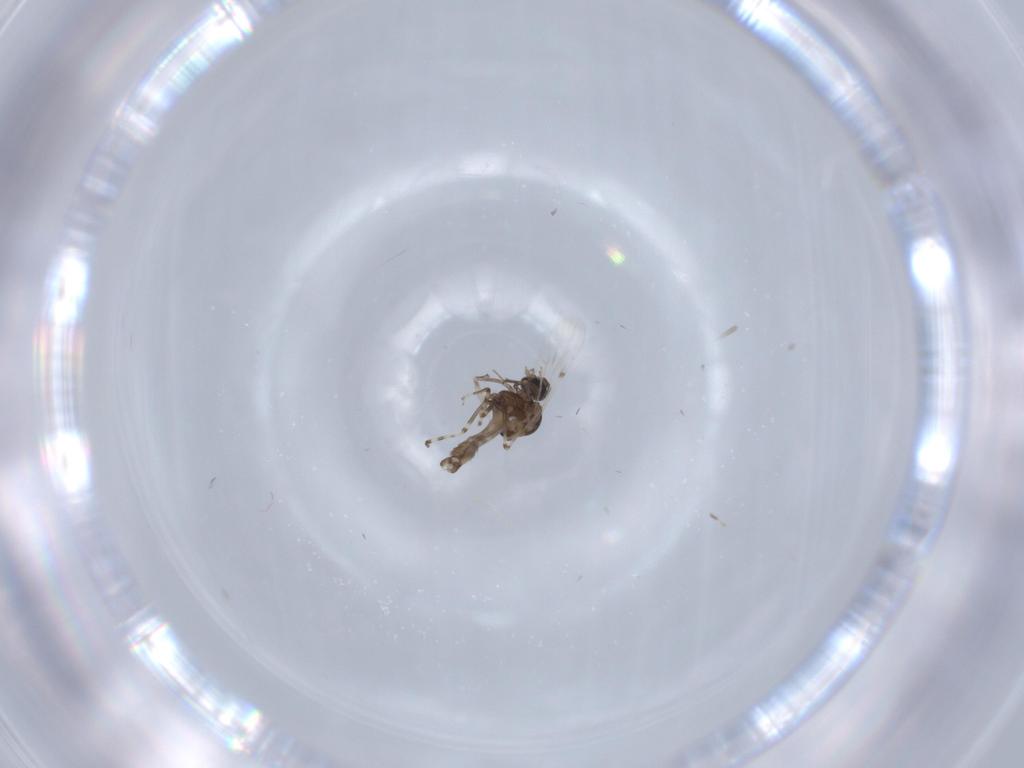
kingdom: Animalia
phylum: Arthropoda
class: Insecta
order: Diptera
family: Ceratopogonidae
